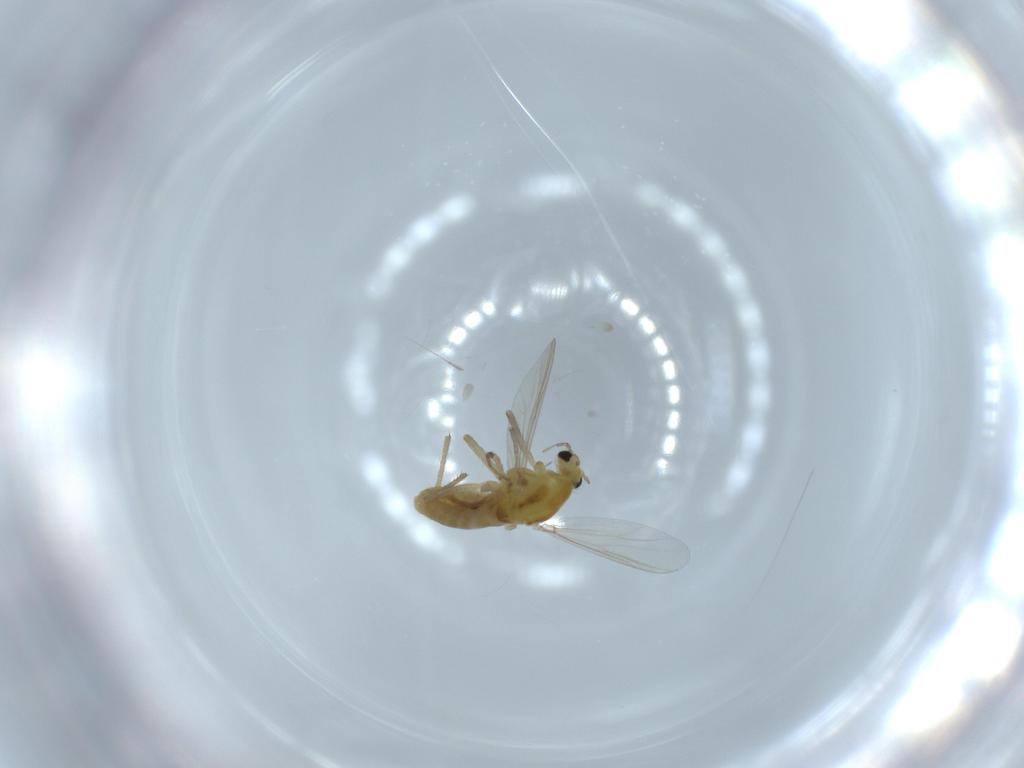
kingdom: Animalia
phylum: Arthropoda
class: Insecta
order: Diptera
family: Chironomidae
